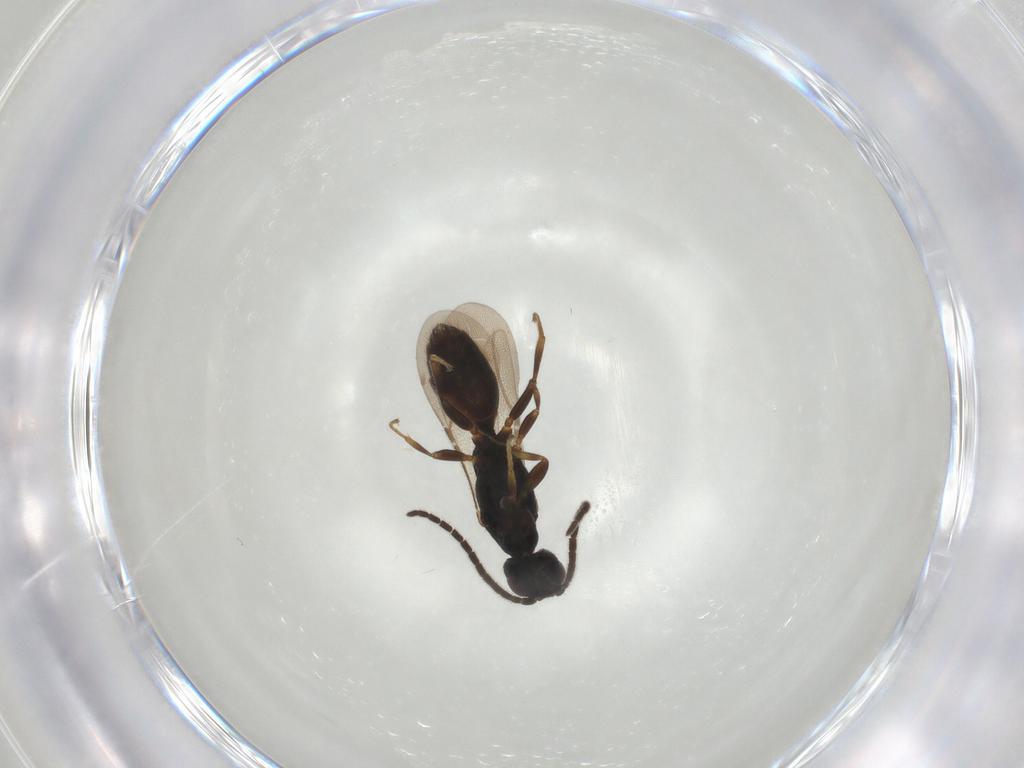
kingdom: Animalia
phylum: Arthropoda
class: Insecta
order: Hymenoptera
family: Bethylidae
